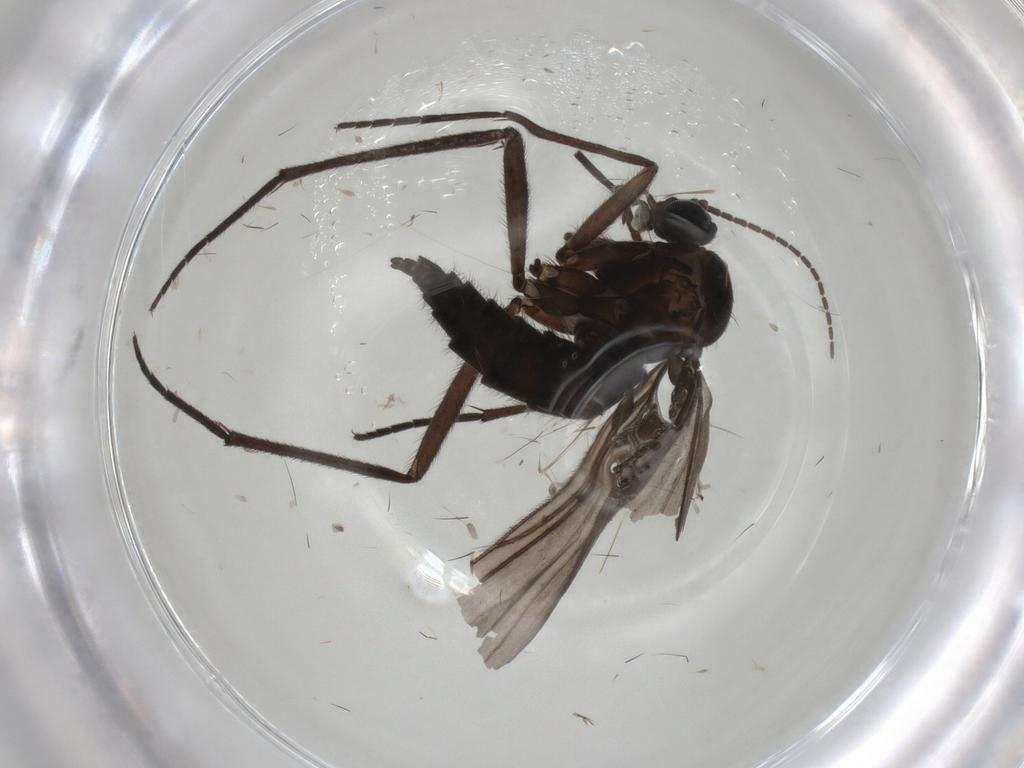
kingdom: Animalia
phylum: Arthropoda
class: Insecta
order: Diptera
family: Sciaridae
